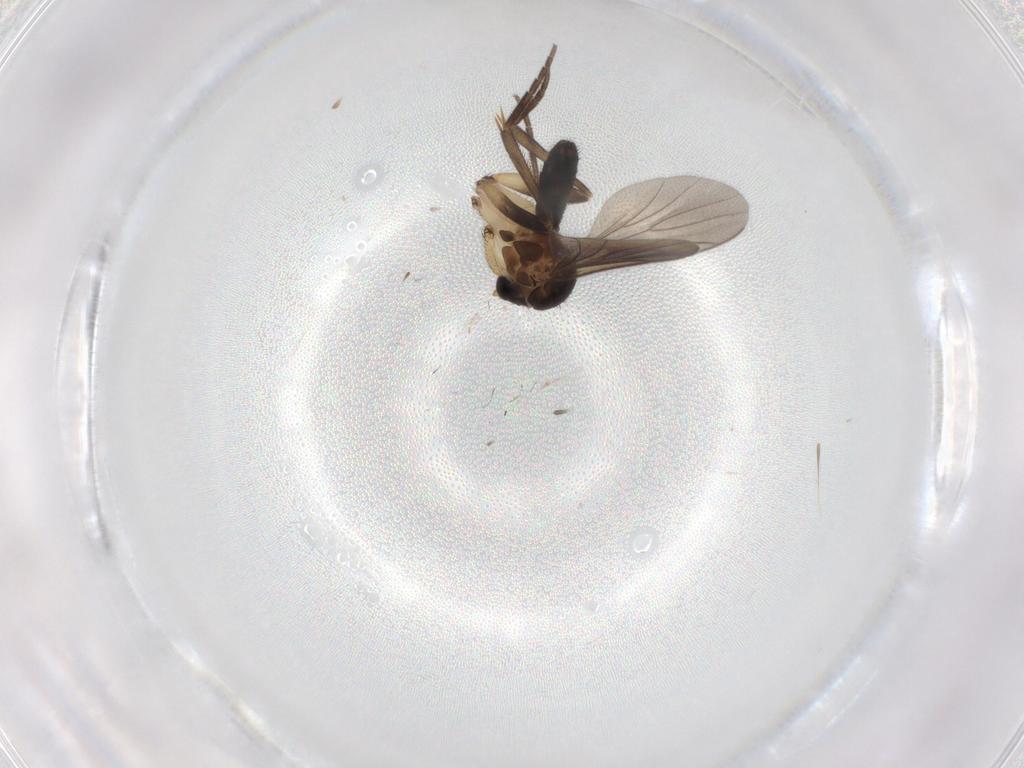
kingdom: Animalia
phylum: Arthropoda
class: Insecta
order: Diptera
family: Mycetophilidae
